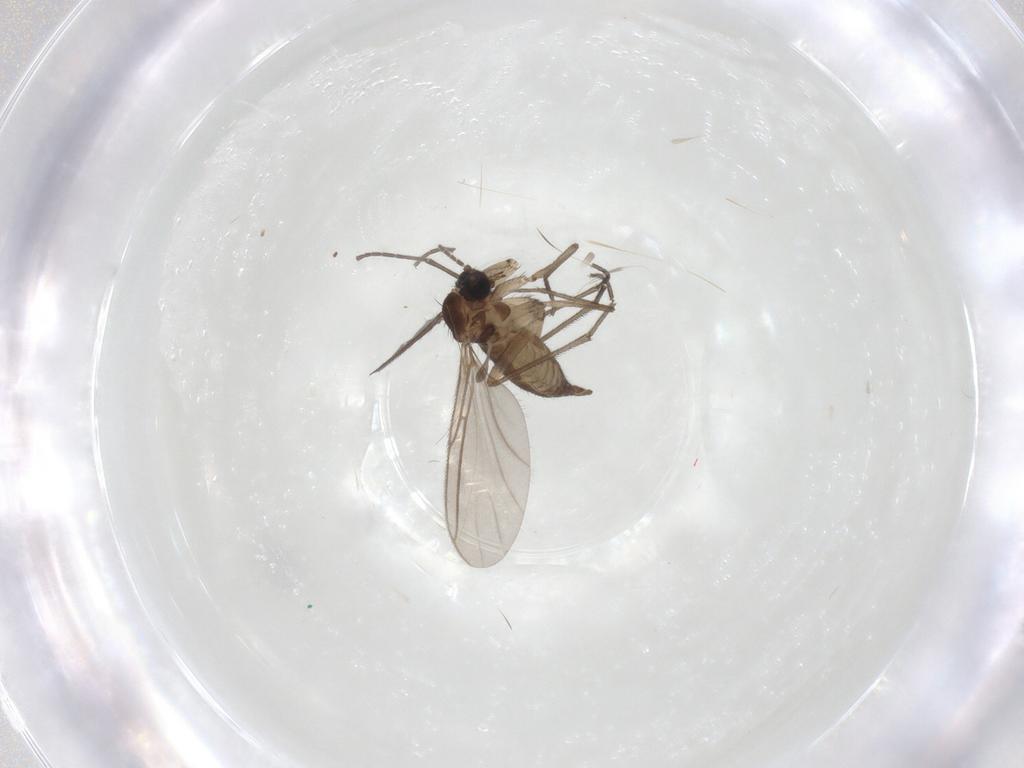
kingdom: Animalia
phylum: Arthropoda
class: Insecta
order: Diptera
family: Sciaridae
